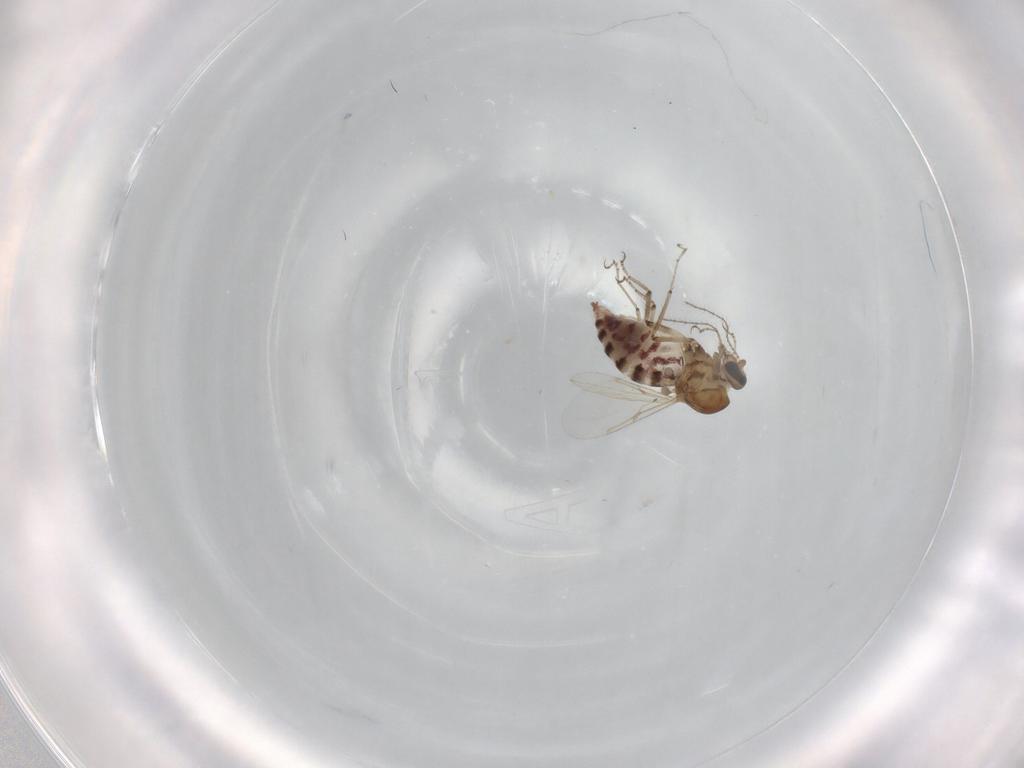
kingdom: Animalia
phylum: Arthropoda
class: Insecta
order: Diptera
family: Ceratopogonidae
